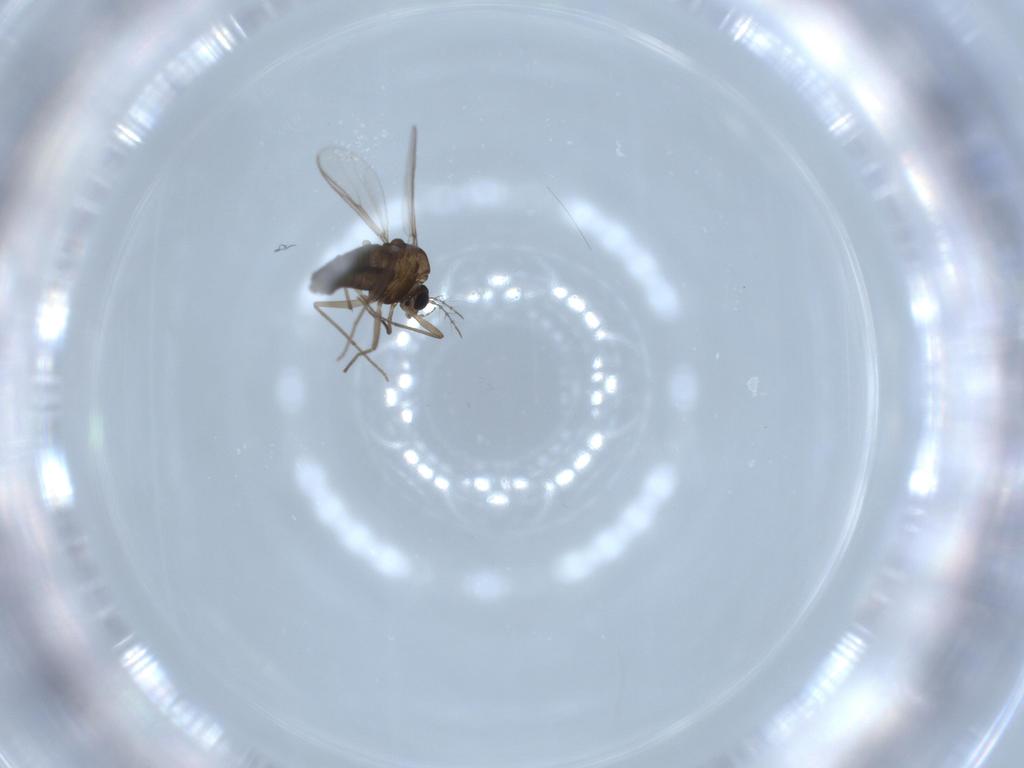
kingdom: Animalia
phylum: Arthropoda
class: Insecta
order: Diptera
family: Chironomidae
